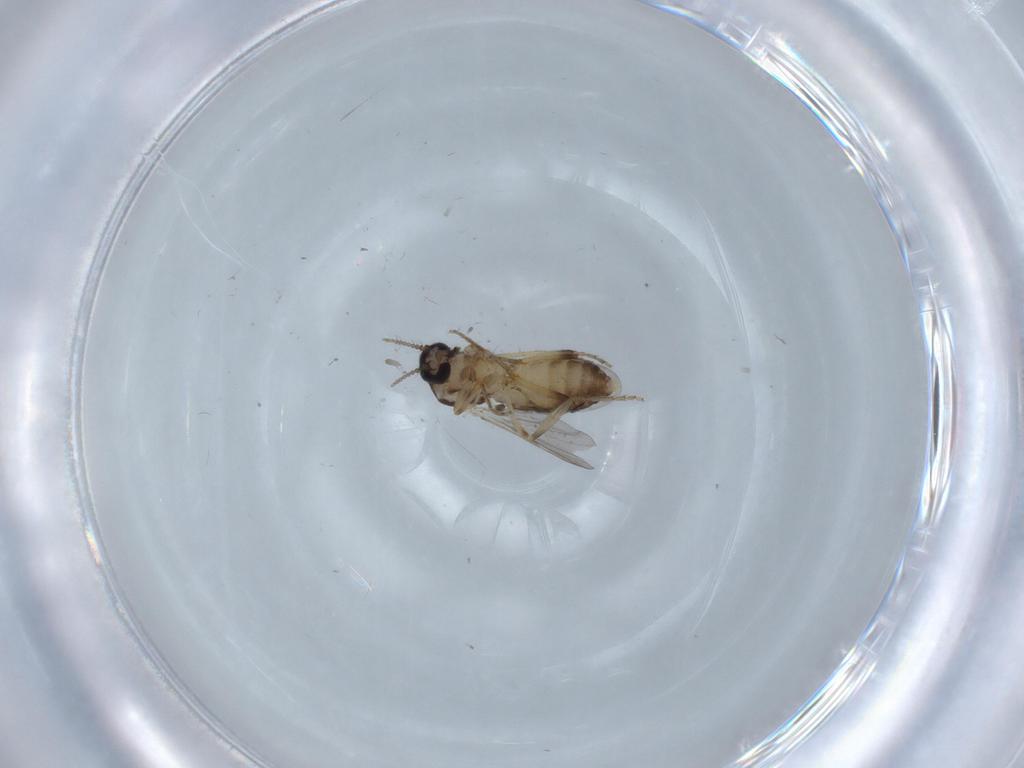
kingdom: Animalia
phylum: Arthropoda
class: Insecta
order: Diptera
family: Ceratopogonidae
